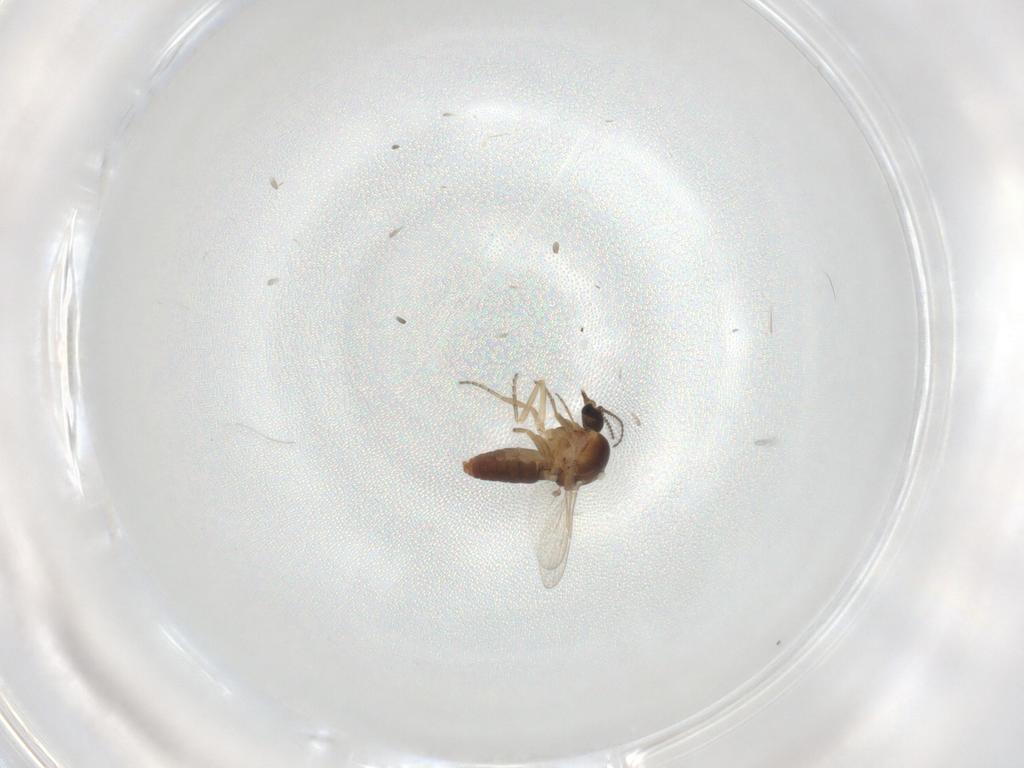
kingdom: Animalia
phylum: Arthropoda
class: Insecta
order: Diptera
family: Ceratopogonidae
